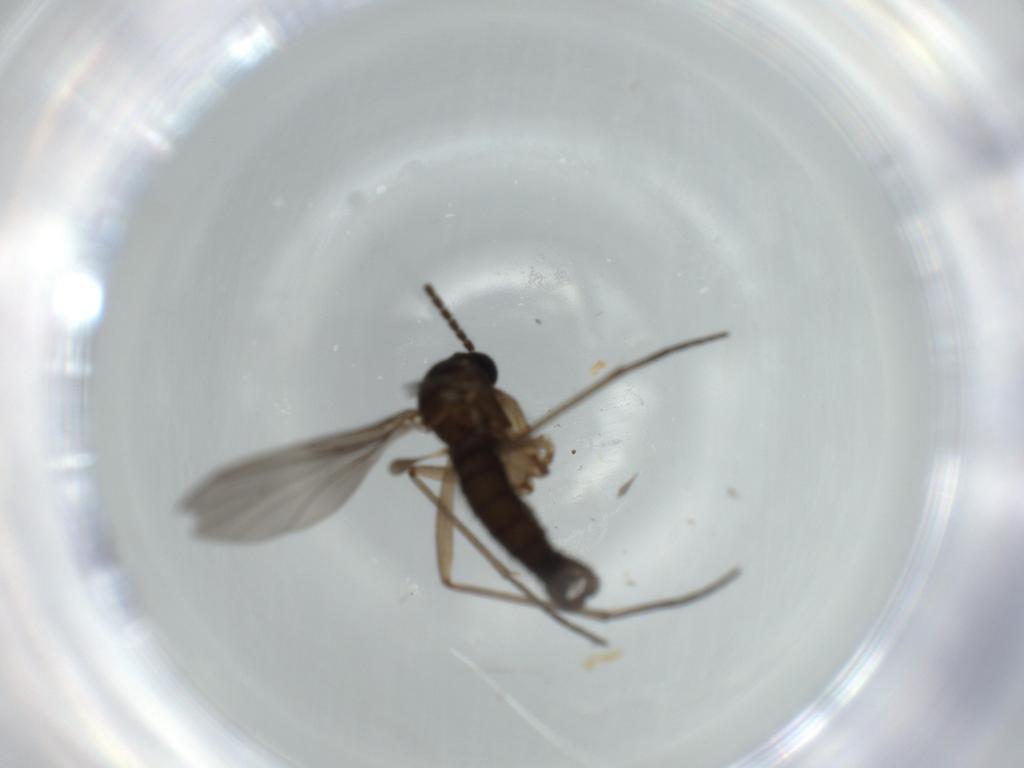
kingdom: Animalia
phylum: Arthropoda
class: Insecta
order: Diptera
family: Sciaridae
